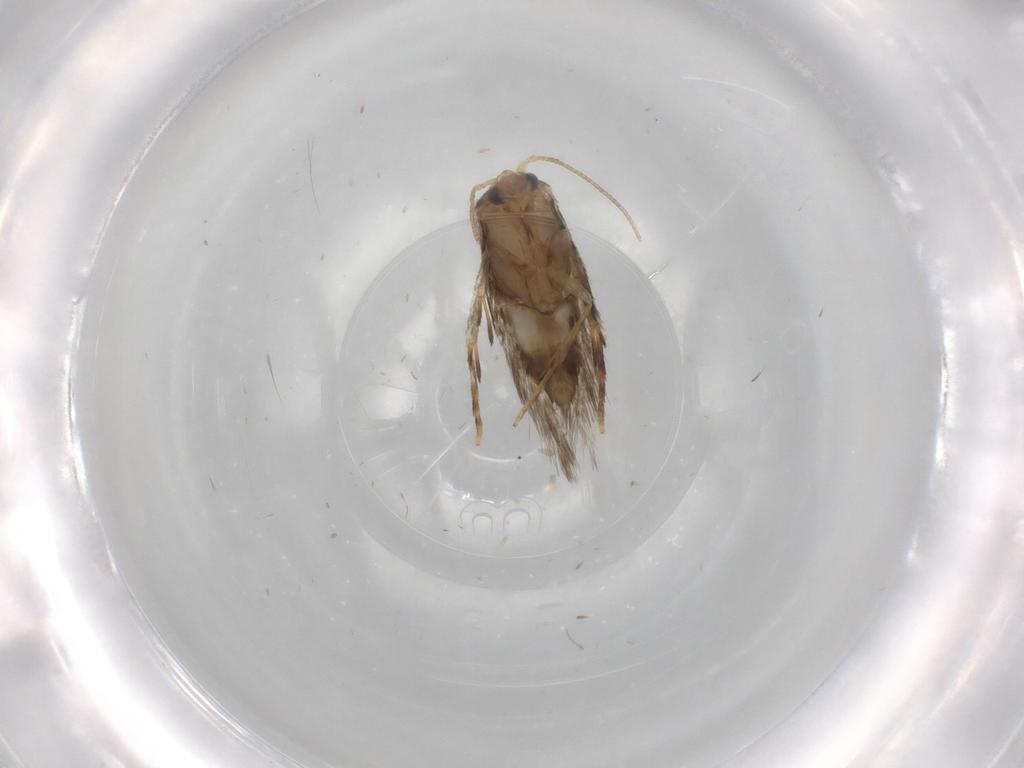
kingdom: Animalia
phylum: Arthropoda
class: Insecta
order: Lepidoptera
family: Nepticulidae
